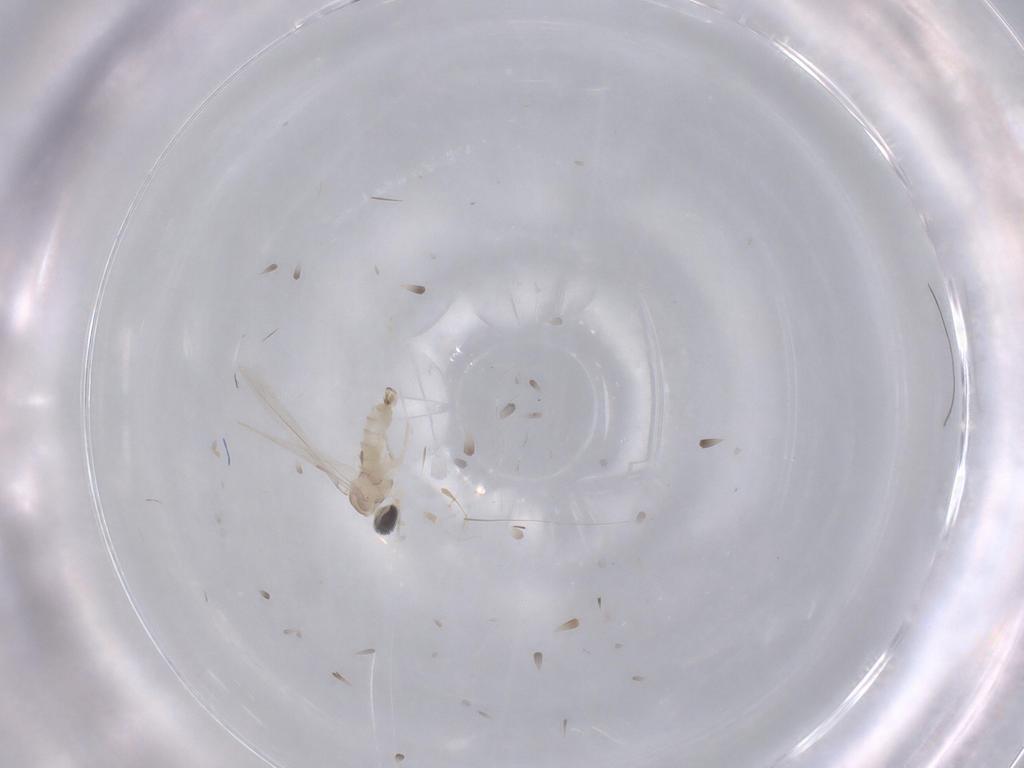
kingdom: Animalia
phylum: Arthropoda
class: Insecta
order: Diptera
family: Cecidomyiidae
